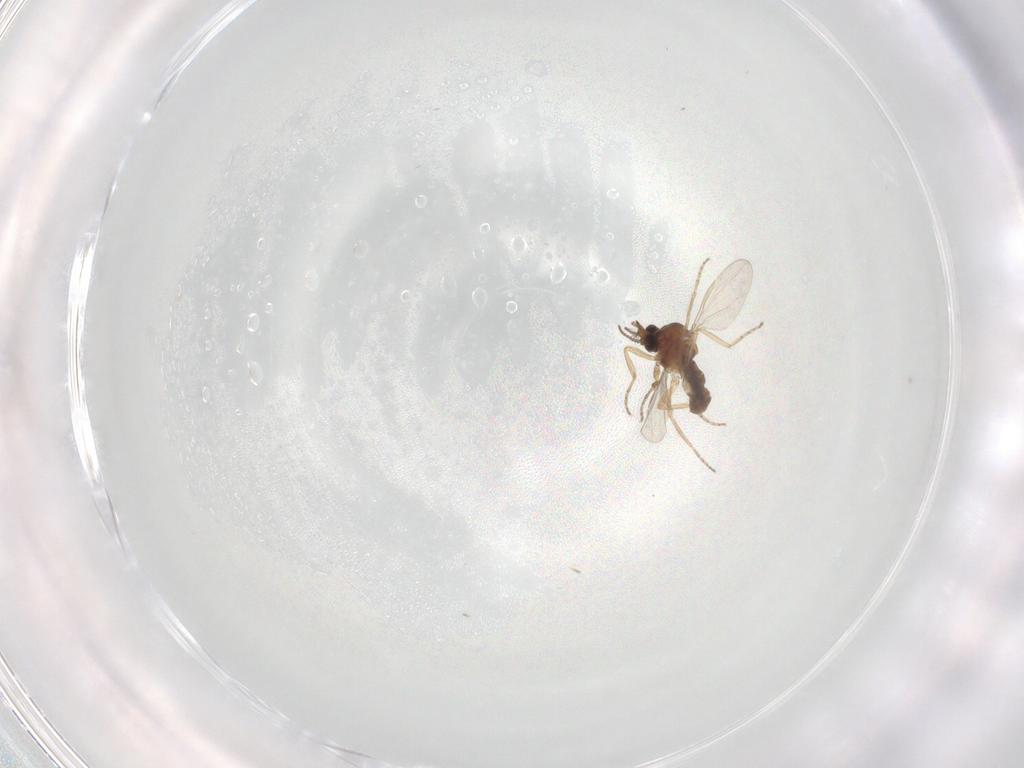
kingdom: Animalia
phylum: Arthropoda
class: Insecta
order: Diptera
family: Ceratopogonidae
